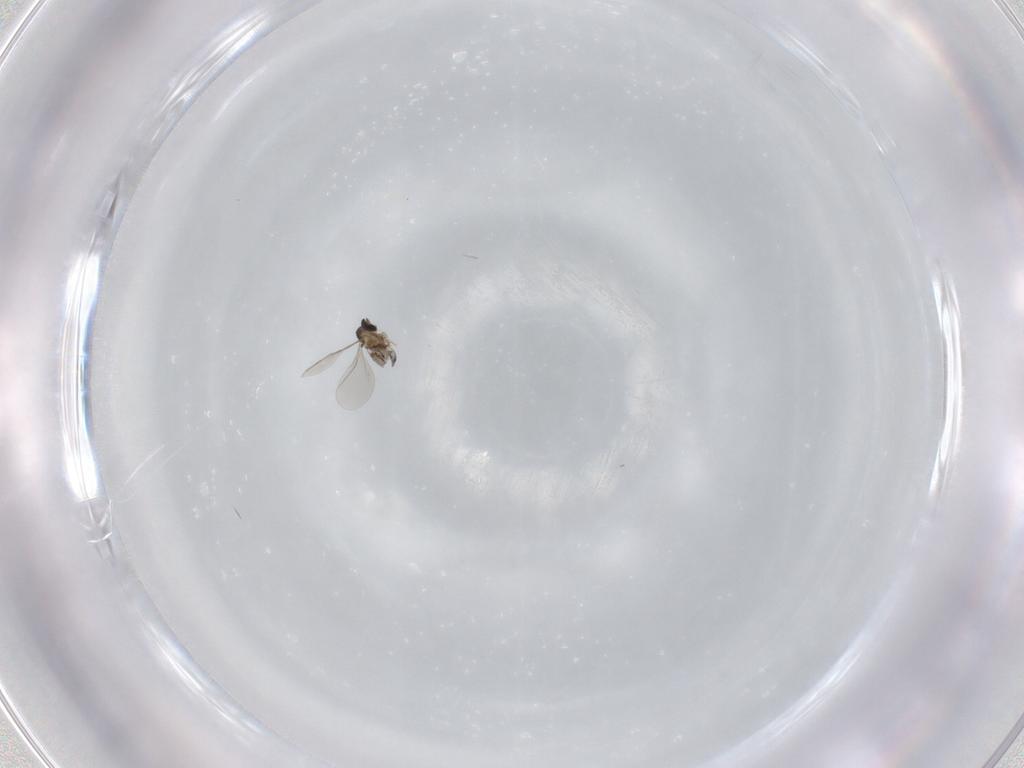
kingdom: Animalia
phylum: Arthropoda
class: Insecta
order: Diptera
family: Cecidomyiidae
